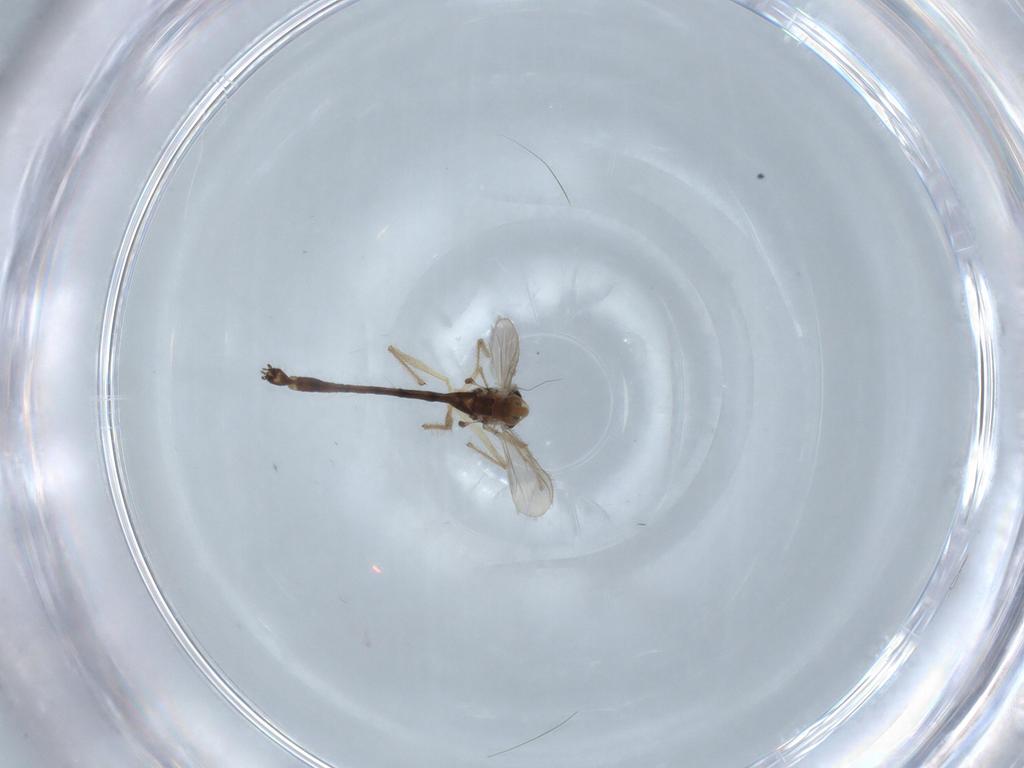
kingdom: Animalia
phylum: Arthropoda
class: Insecta
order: Diptera
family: Chironomidae
